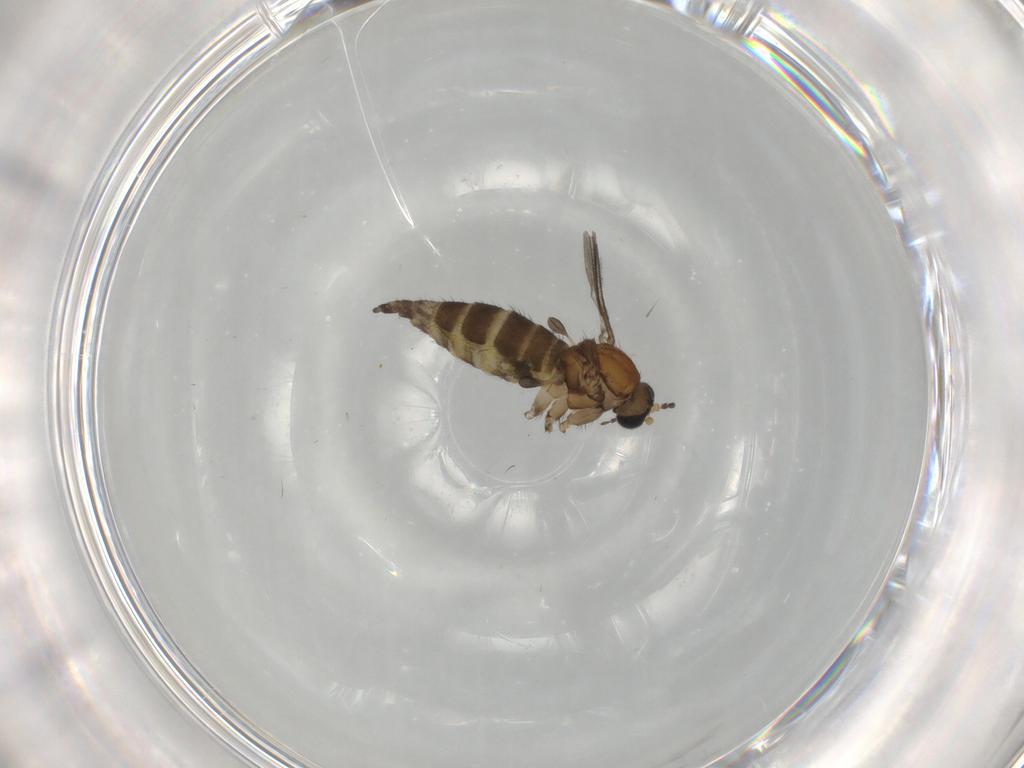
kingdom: Animalia
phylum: Arthropoda
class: Insecta
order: Diptera
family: Sciaridae
